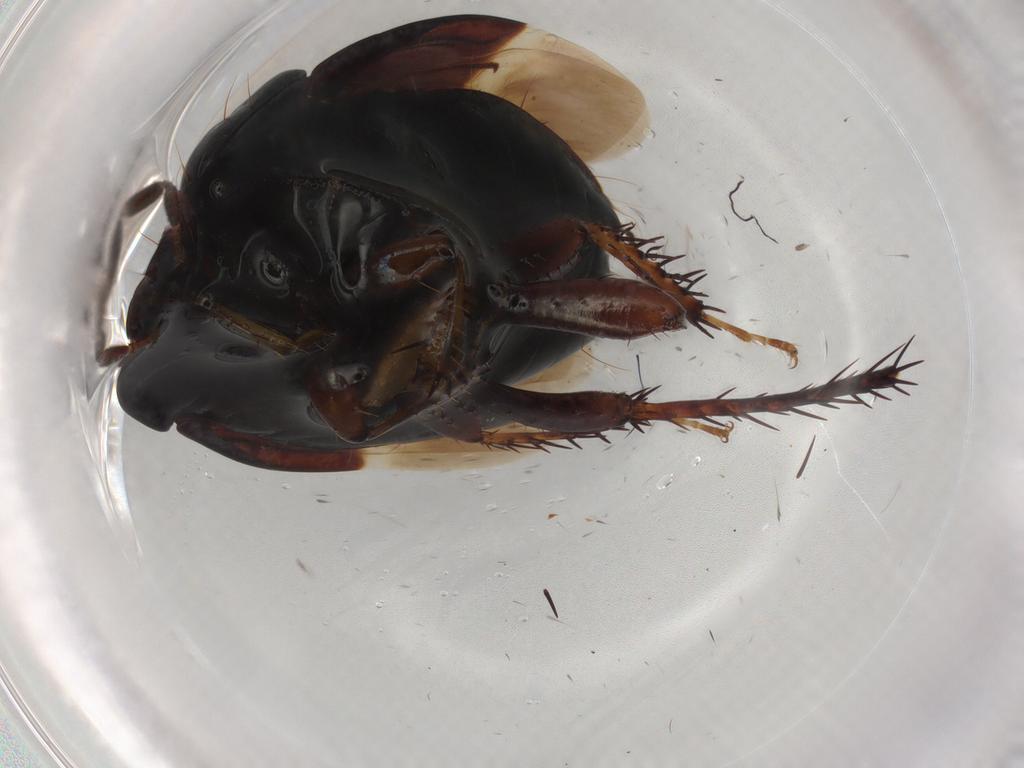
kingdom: Animalia
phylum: Arthropoda
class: Insecta
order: Hemiptera
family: Cydnidae
